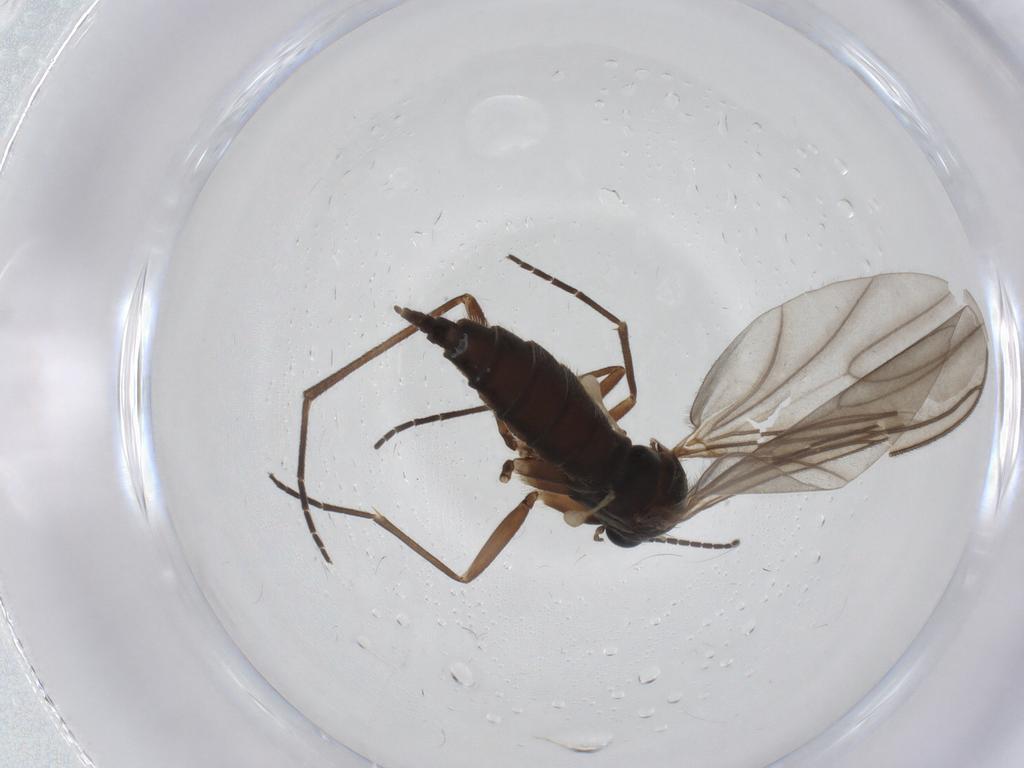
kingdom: Animalia
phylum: Arthropoda
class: Insecta
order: Diptera
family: Sciaridae
